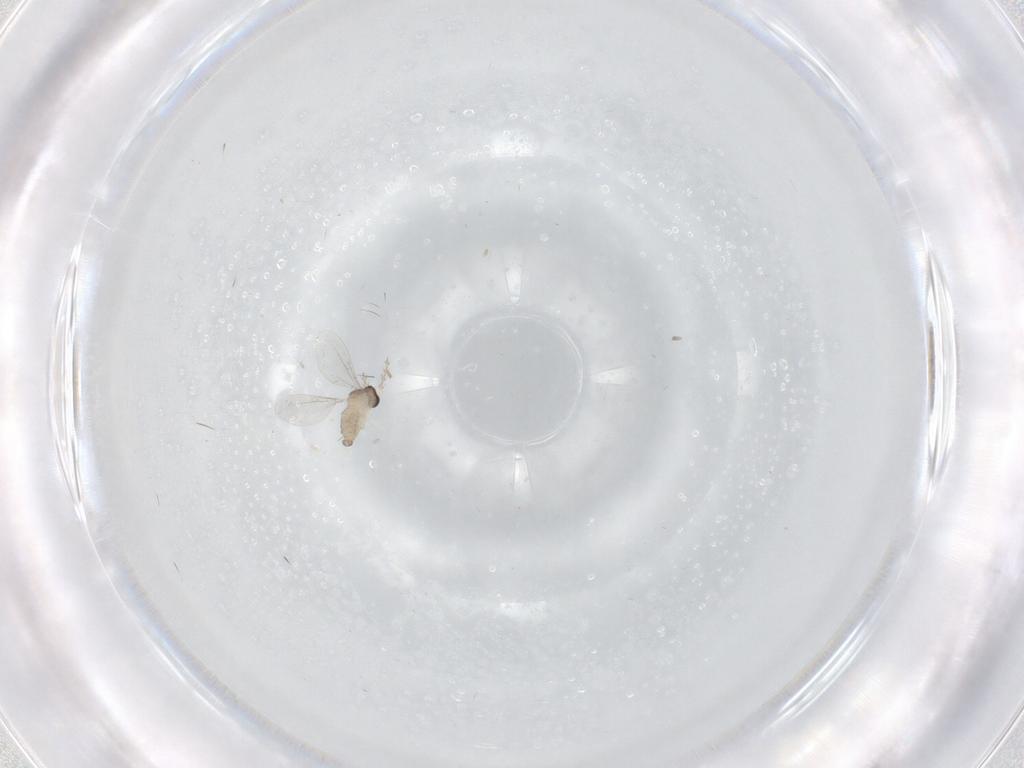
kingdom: Animalia
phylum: Arthropoda
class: Insecta
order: Diptera
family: Cecidomyiidae
